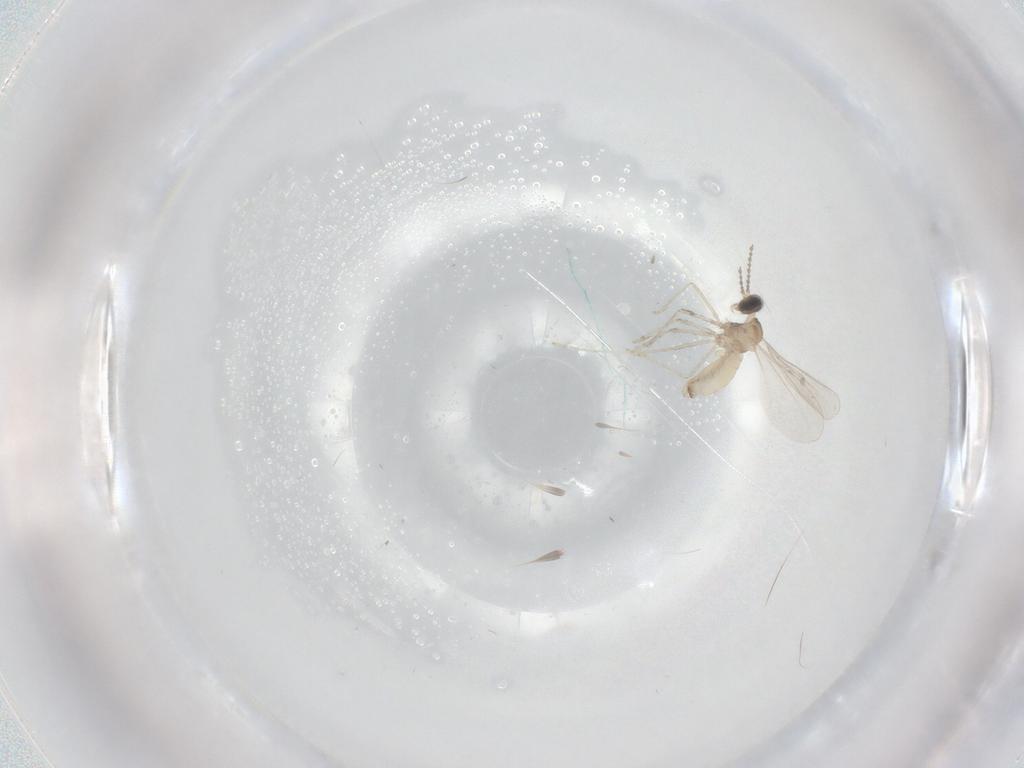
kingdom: Animalia
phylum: Arthropoda
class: Insecta
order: Diptera
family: Cecidomyiidae
